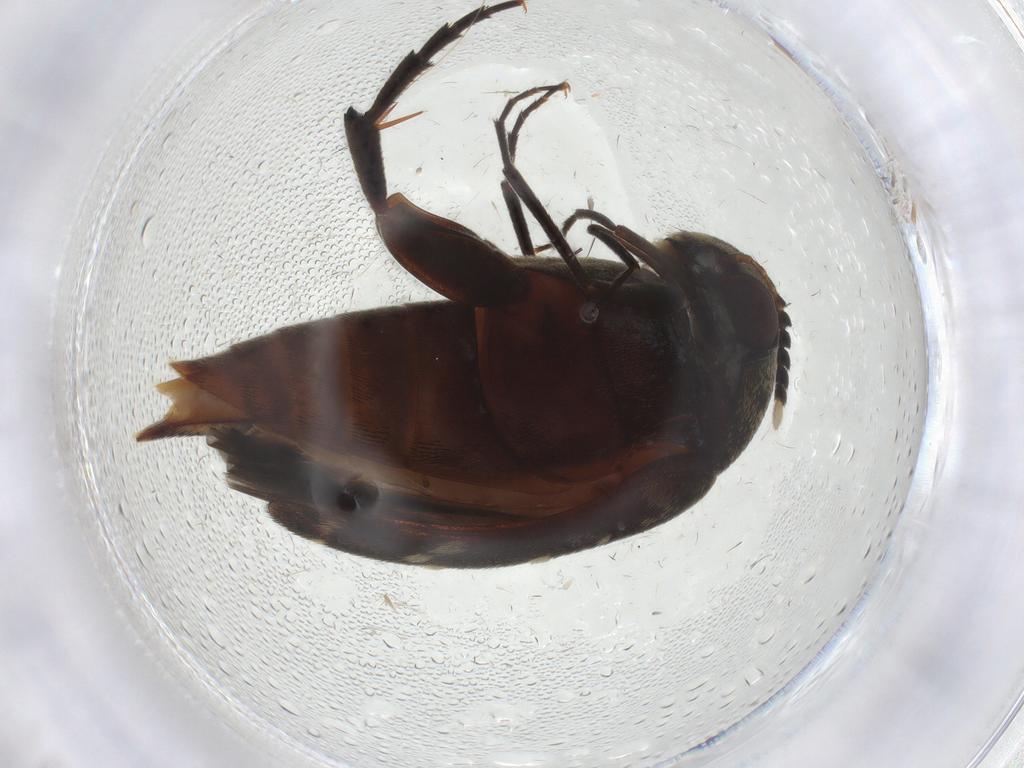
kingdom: Animalia
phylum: Arthropoda
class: Insecta
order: Coleoptera
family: Mordellidae
